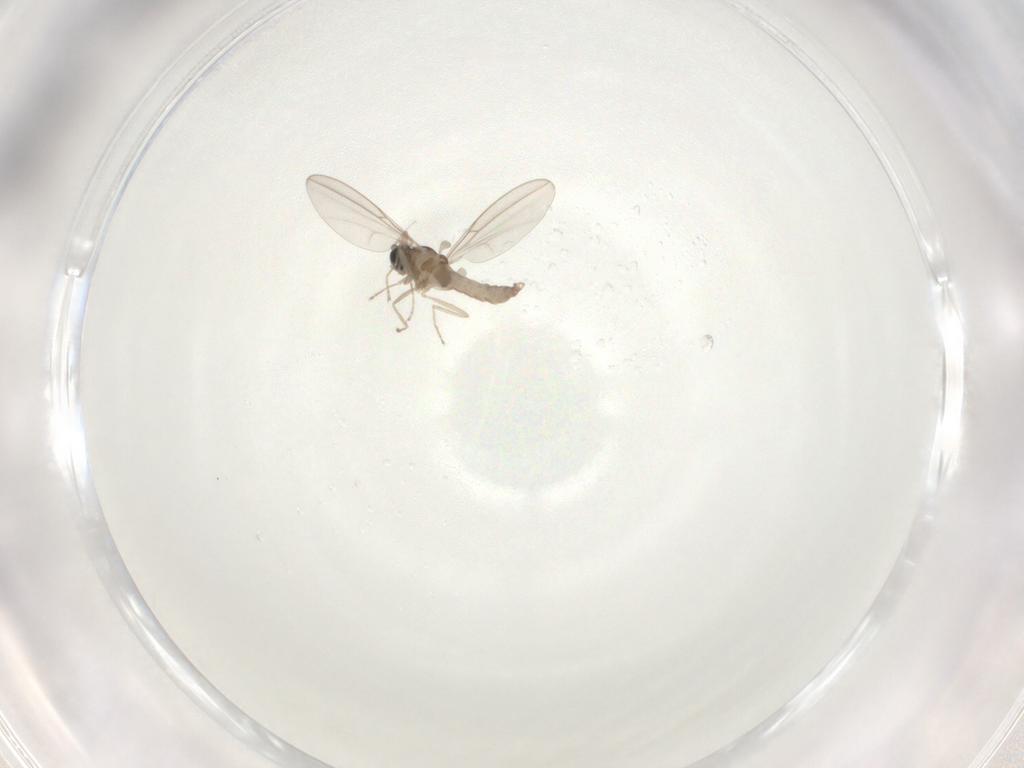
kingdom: Animalia
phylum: Arthropoda
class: Insecta
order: Diptera
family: Cecidomyiidae
